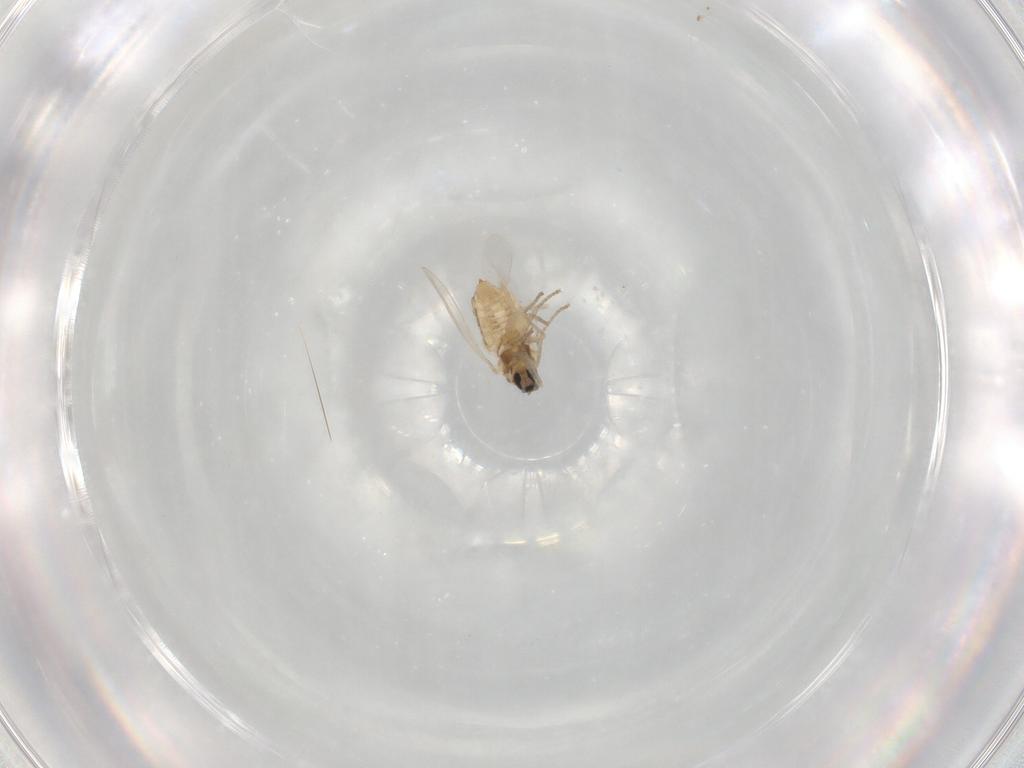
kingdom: Animalia
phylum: Arthropoda
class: Insecta
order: Diptera
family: Cecidomyiidae
